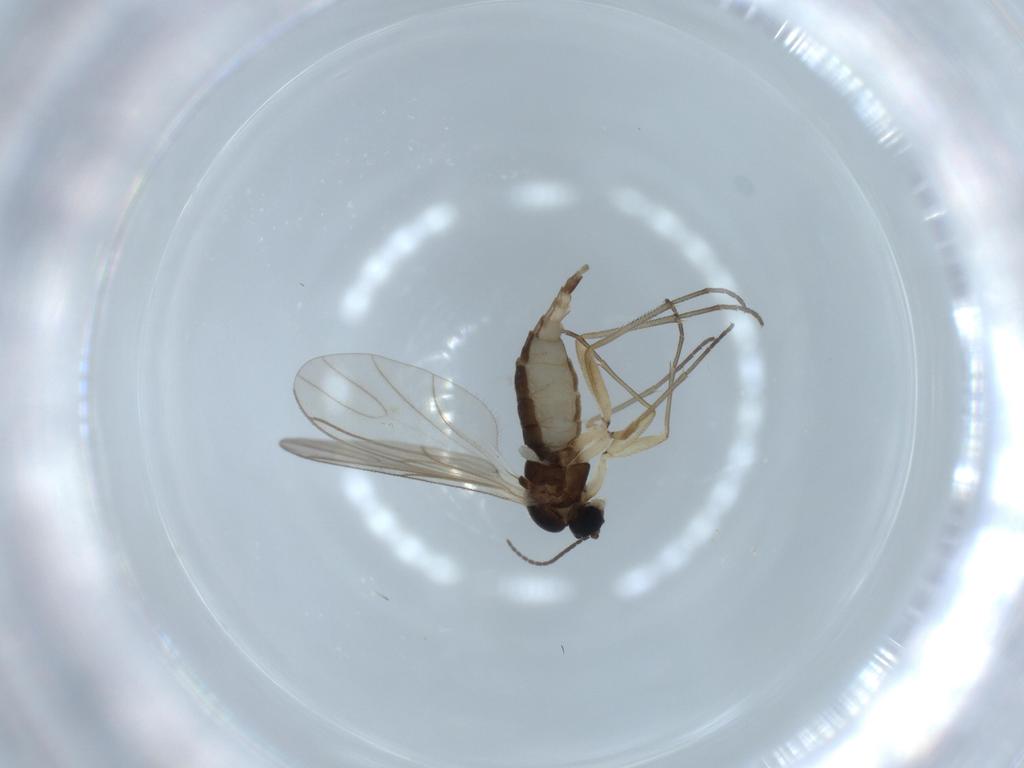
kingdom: Animalia
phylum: Arthropoda
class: Insecta
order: Diptera
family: Sciaridae
